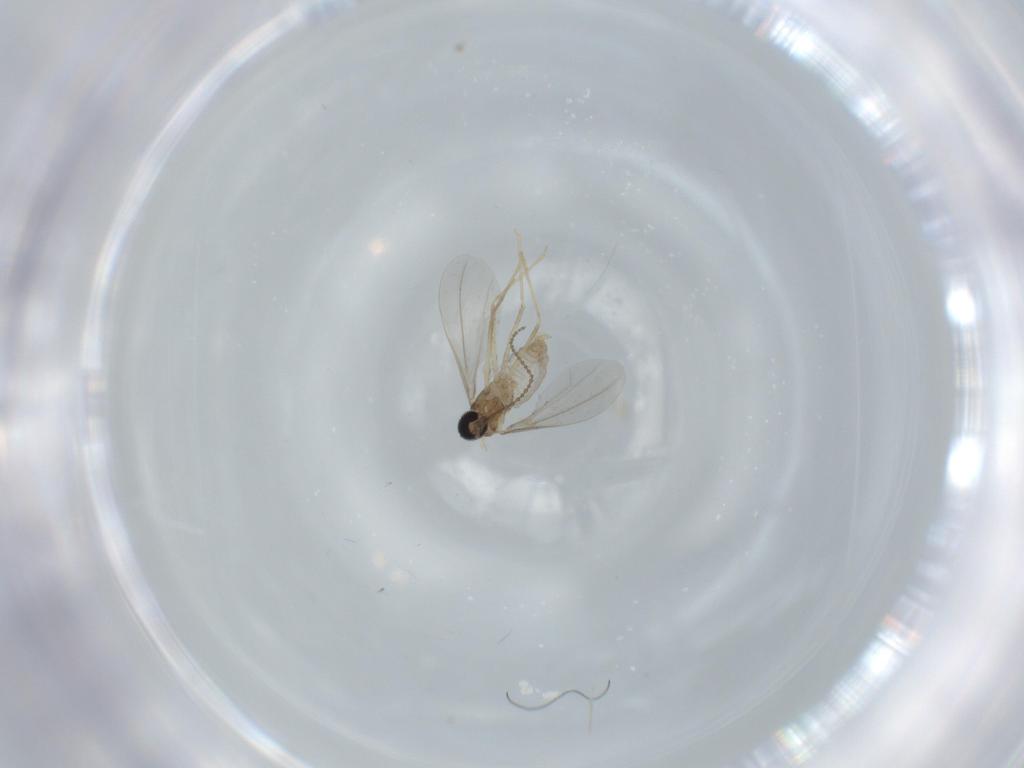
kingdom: Animalia
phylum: Arthropoda
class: Insecta
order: Diptera
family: Cecidomyiidae
